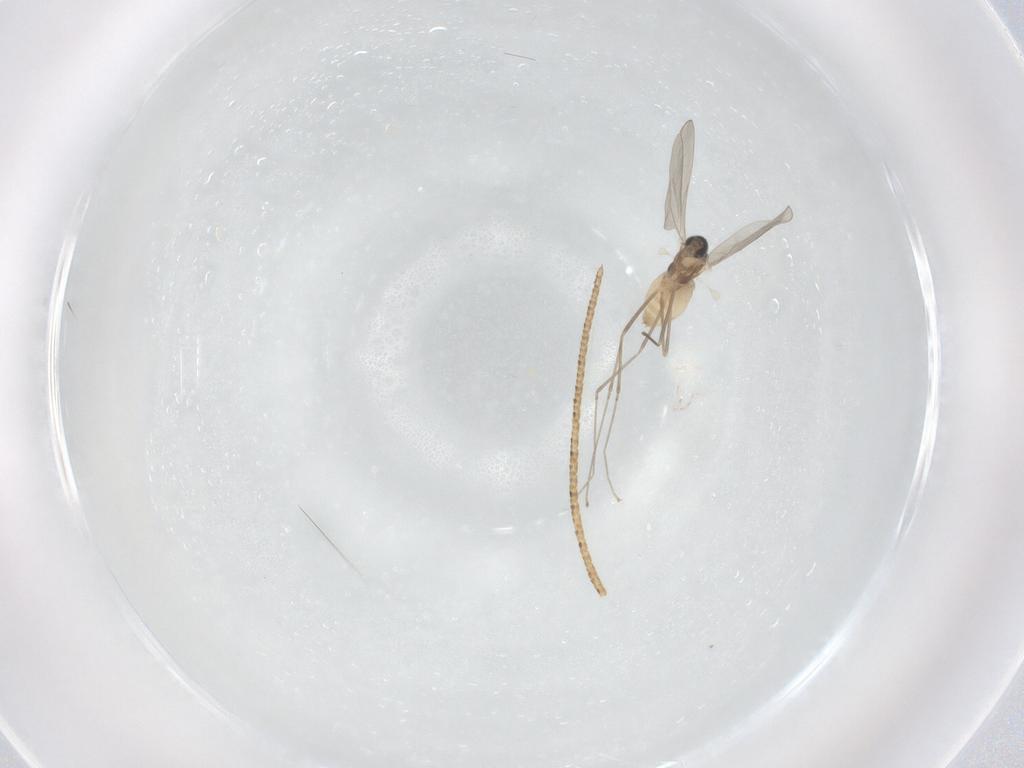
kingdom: Animalia
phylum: Arthropoda
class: Insecta
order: Diptera
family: Cecidomyiidae
